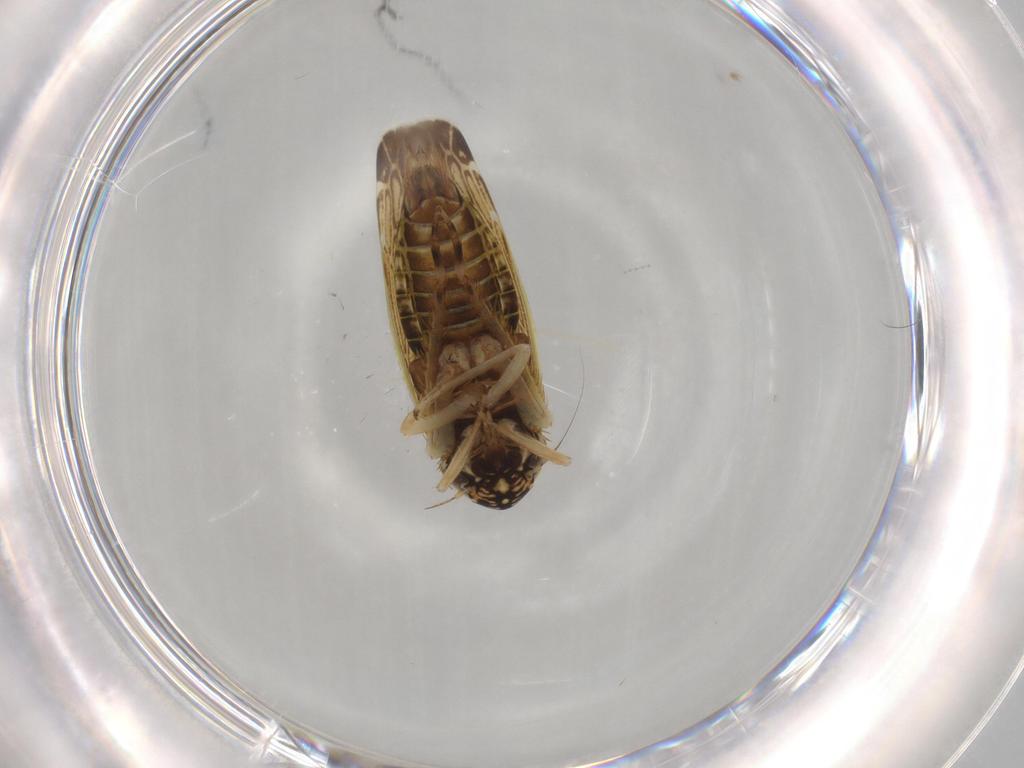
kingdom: Animalia
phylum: Arthropoda
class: Insecta
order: Hemiptera
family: Cicadellidae
